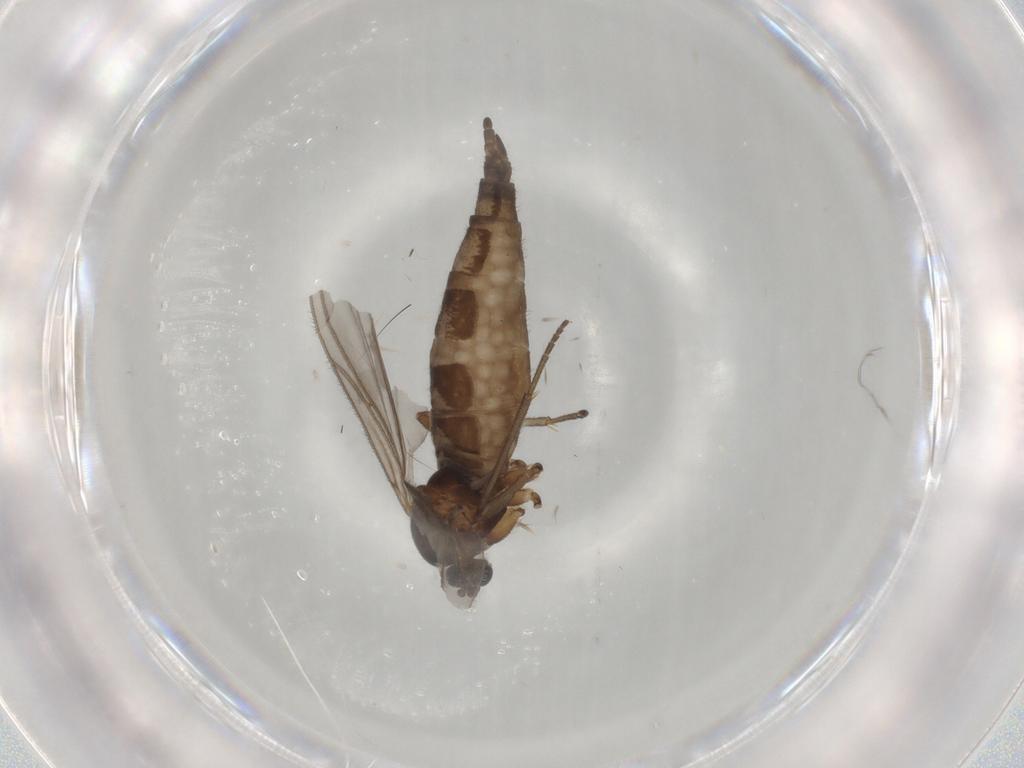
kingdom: Animalia
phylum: Arthropoda
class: Insecta
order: Diptera
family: Sciaridae
